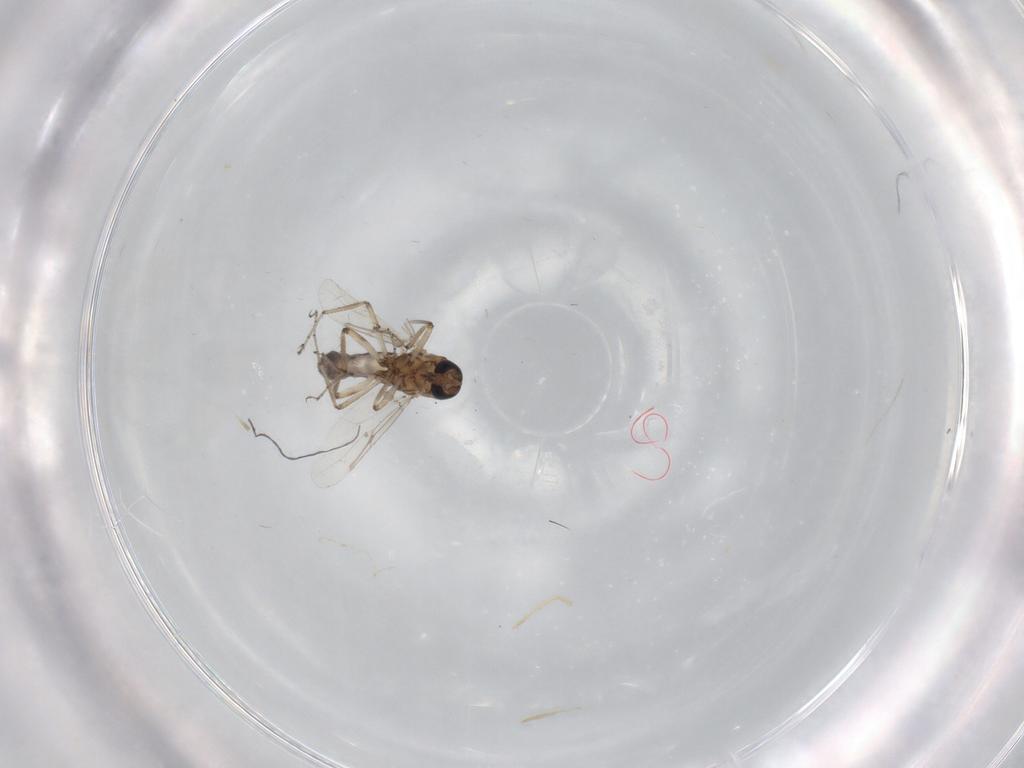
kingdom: Animalia
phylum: Arthropoda
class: Insecta
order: Diptera
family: Ceratopogonidae
